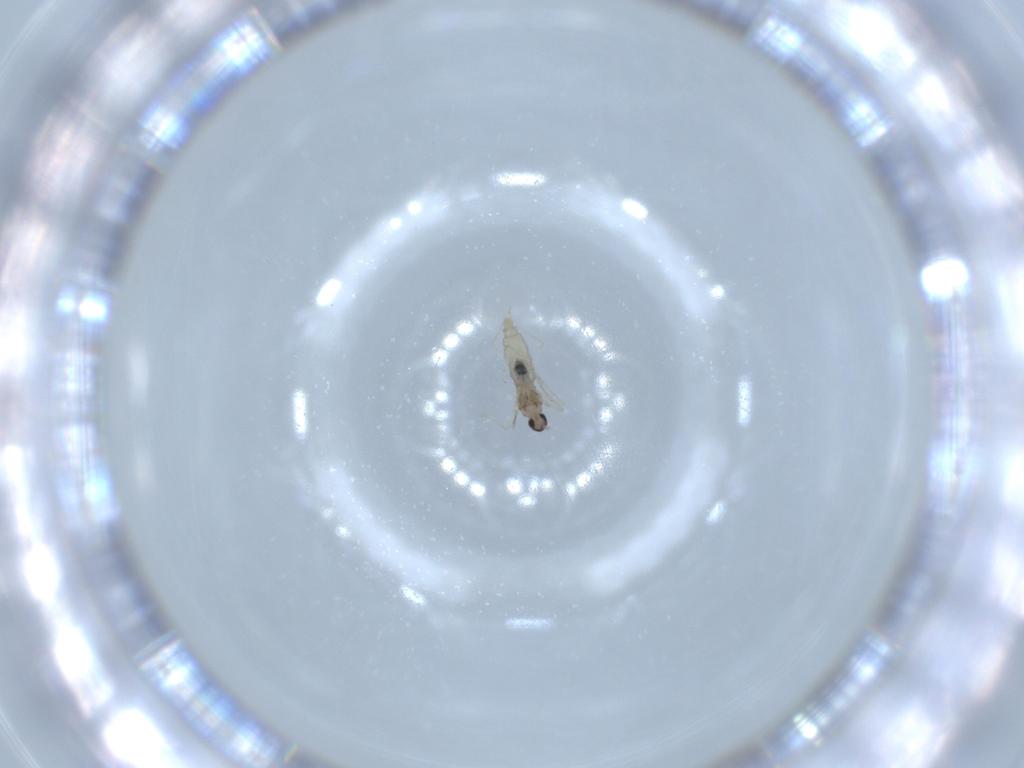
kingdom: Animalia
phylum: Arthropoda
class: Insecta
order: Diptera
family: Cecidomyiidae
